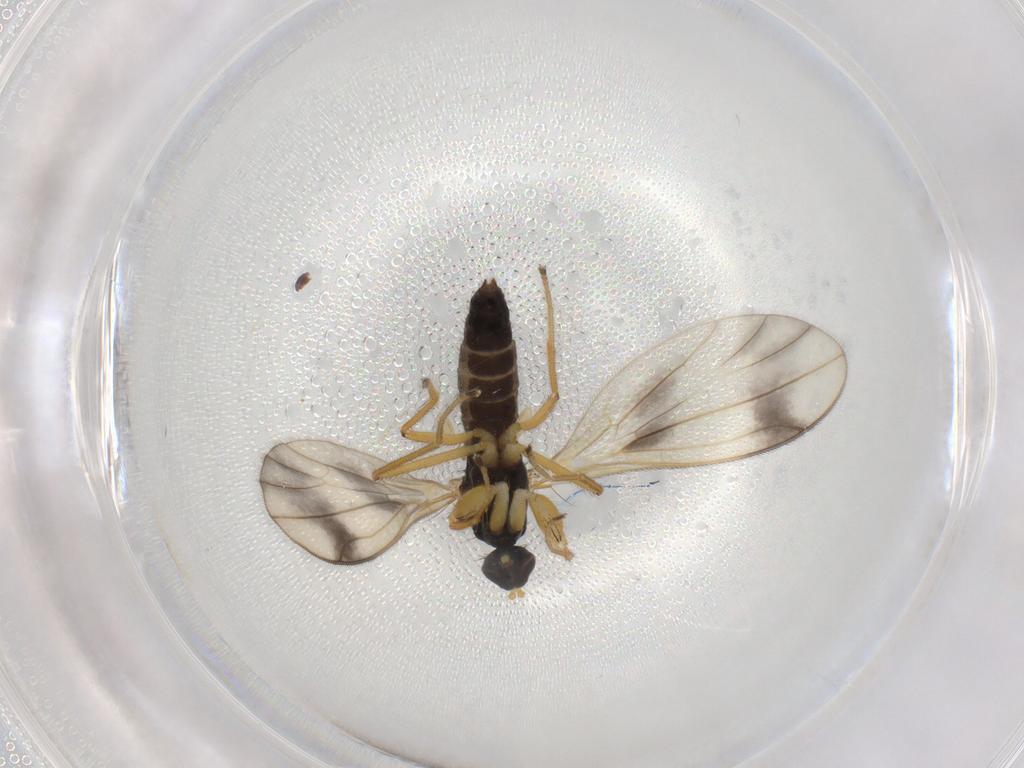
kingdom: Animalia
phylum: Arthropoda
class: Insecta
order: Diptera
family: Empididae
